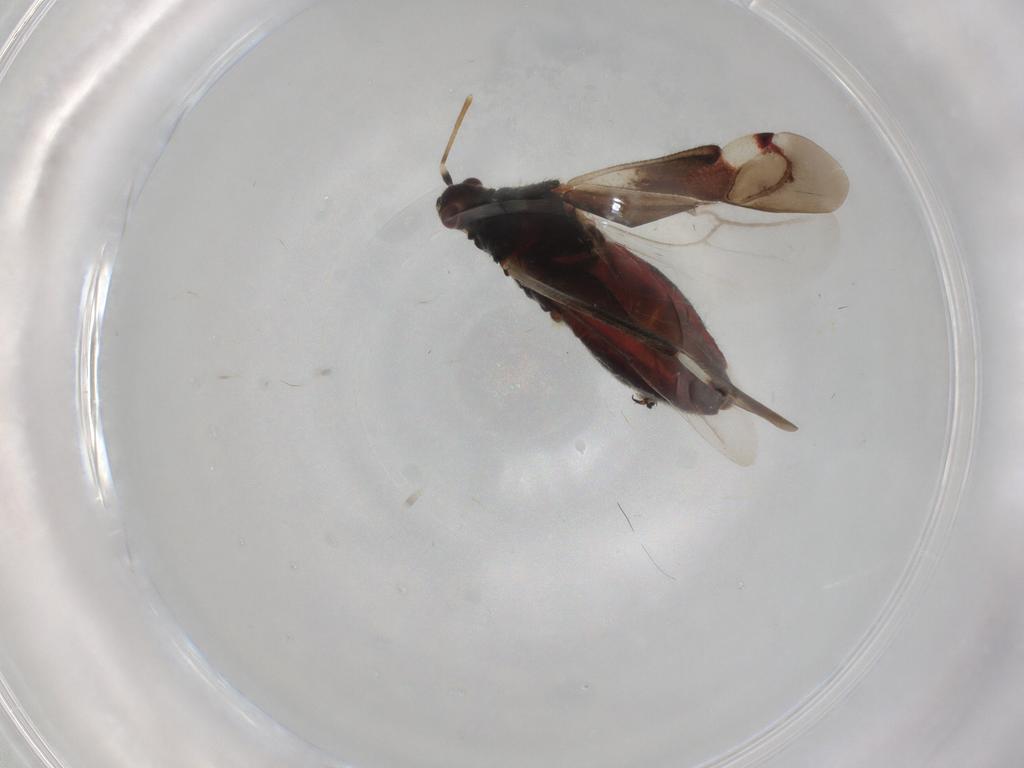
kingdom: Animalia
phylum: Arthropoda
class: Insecta
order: Hemiptera
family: Miridae
